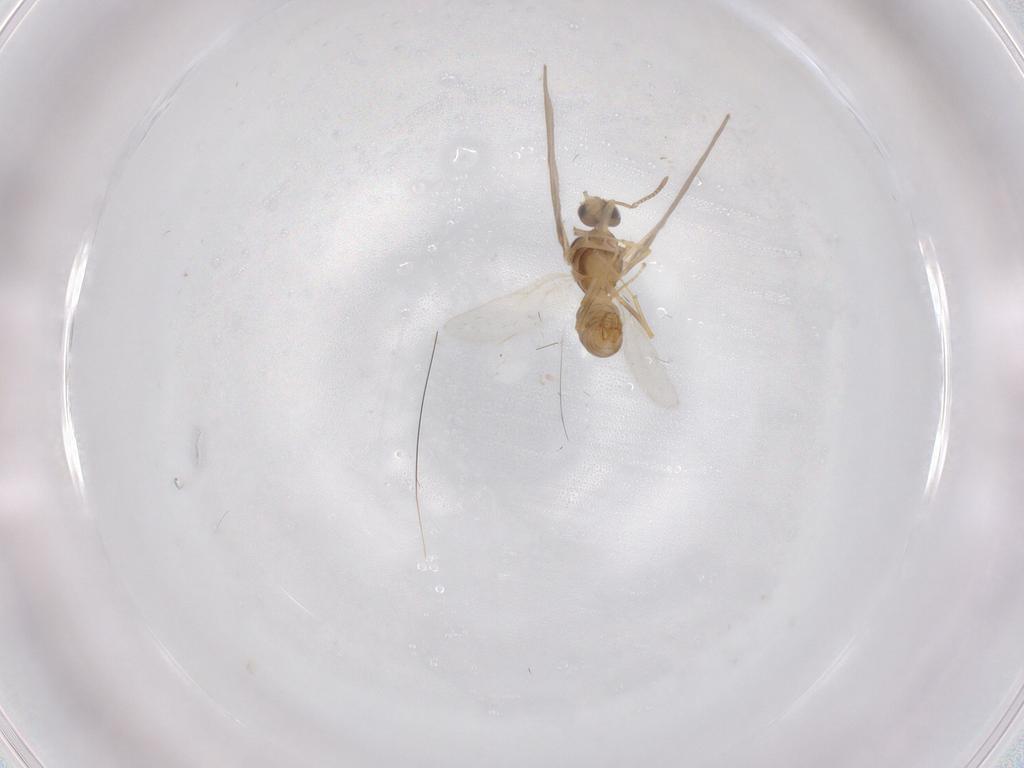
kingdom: Animalia
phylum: Arthropoda
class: Insecta
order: Hymenoptera
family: Formicidae
